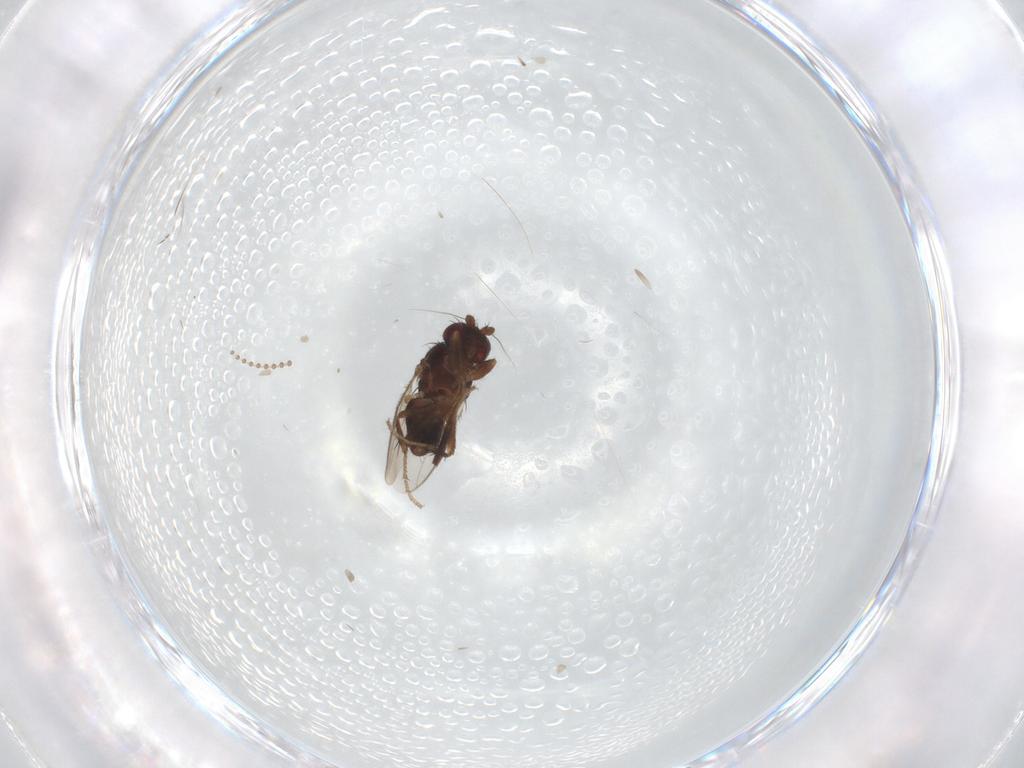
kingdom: Animalia
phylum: Arthropoda
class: Insecta
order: Diptera
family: Sphaeroceridae
